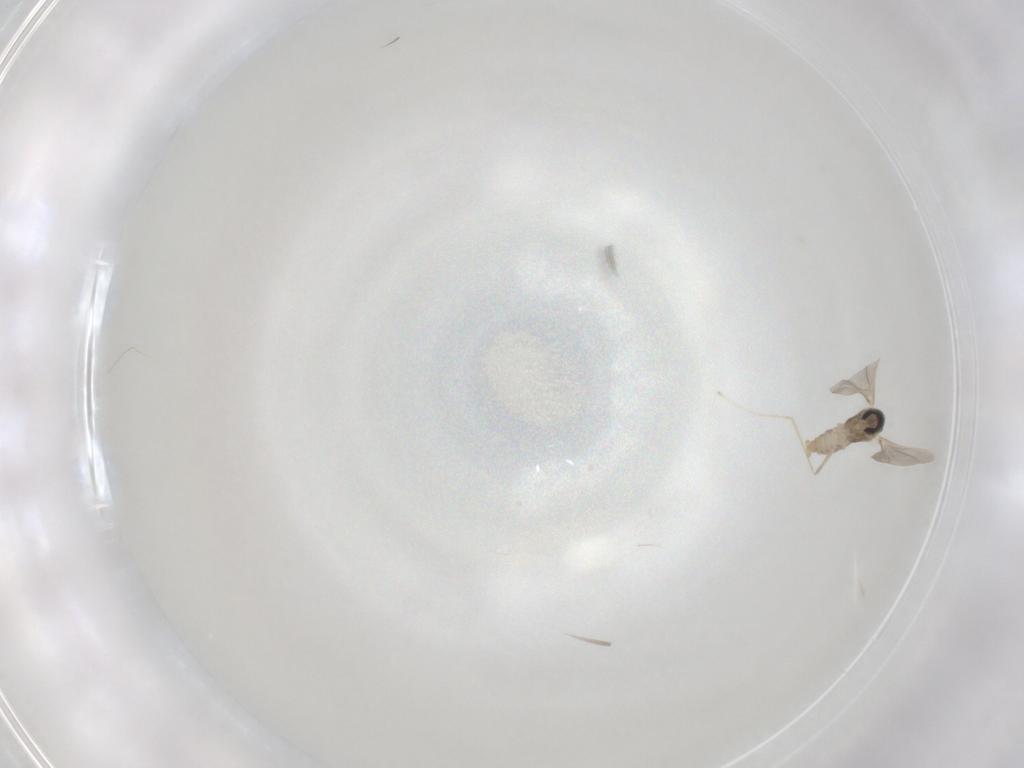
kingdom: Animalia
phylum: Arthropoda
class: Insecta
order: Diptera
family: Cecidomyiidae
